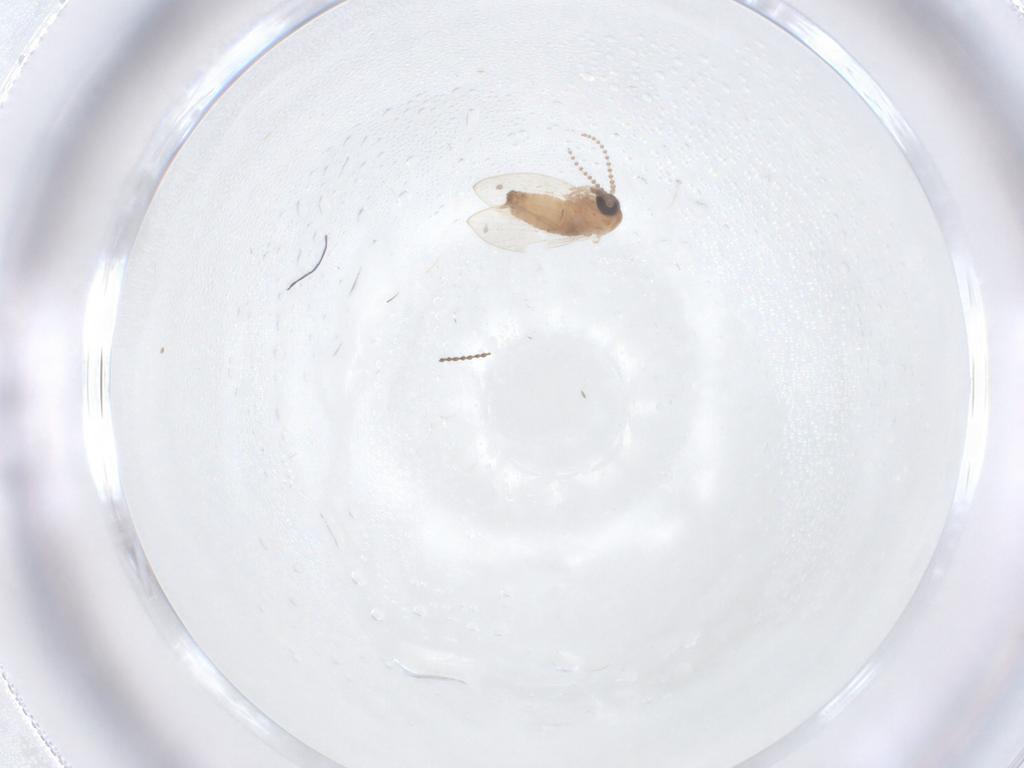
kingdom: Animalia
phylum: Arthropoda
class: Insecta
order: Diptera
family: Psychodidae
